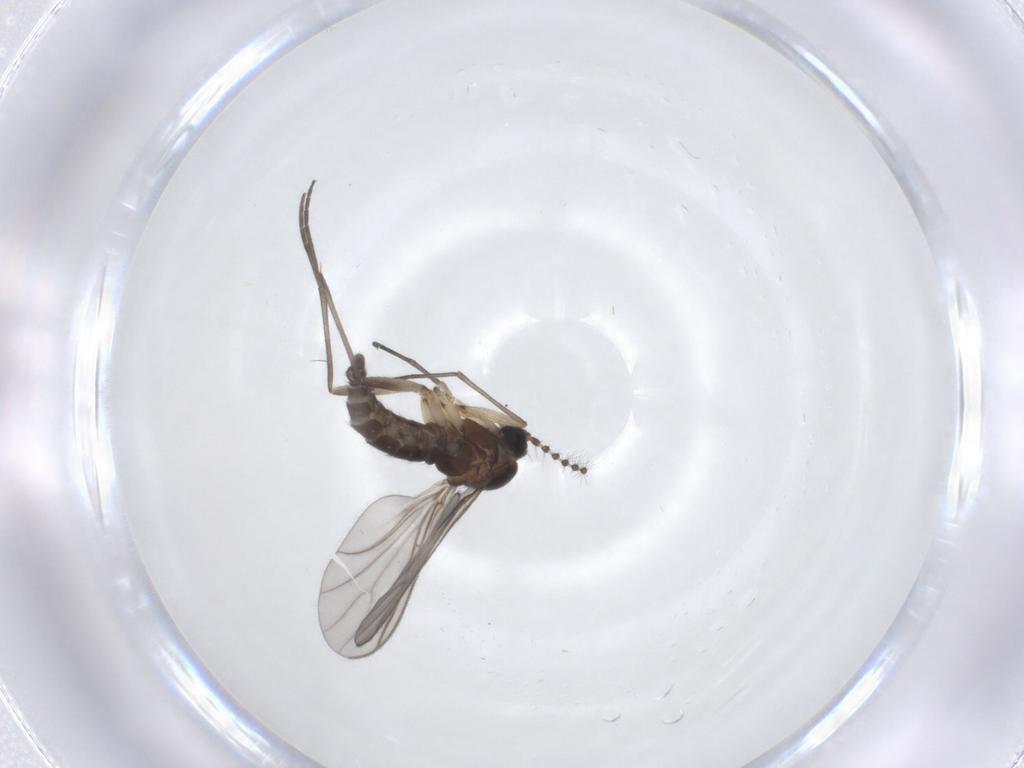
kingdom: Animalia
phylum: Arthropoda
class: Insecta
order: Diptera
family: Sciaridae
